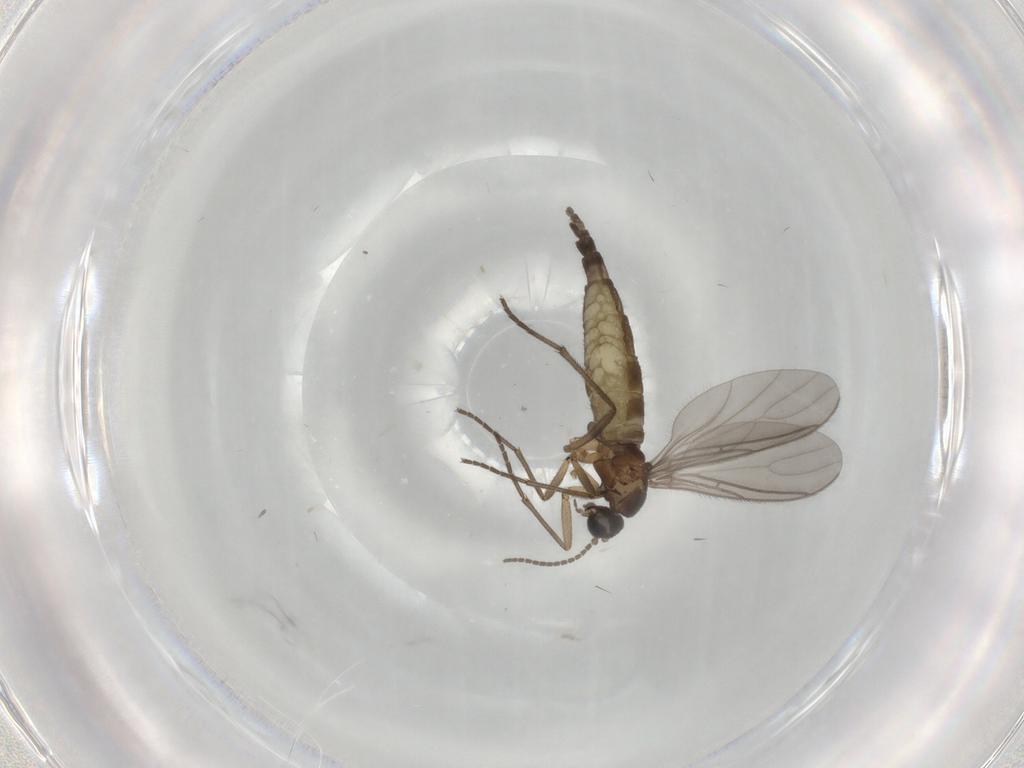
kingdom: Animalia
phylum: Arthropoda
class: Insecta
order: Diptera
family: Sciaridae
